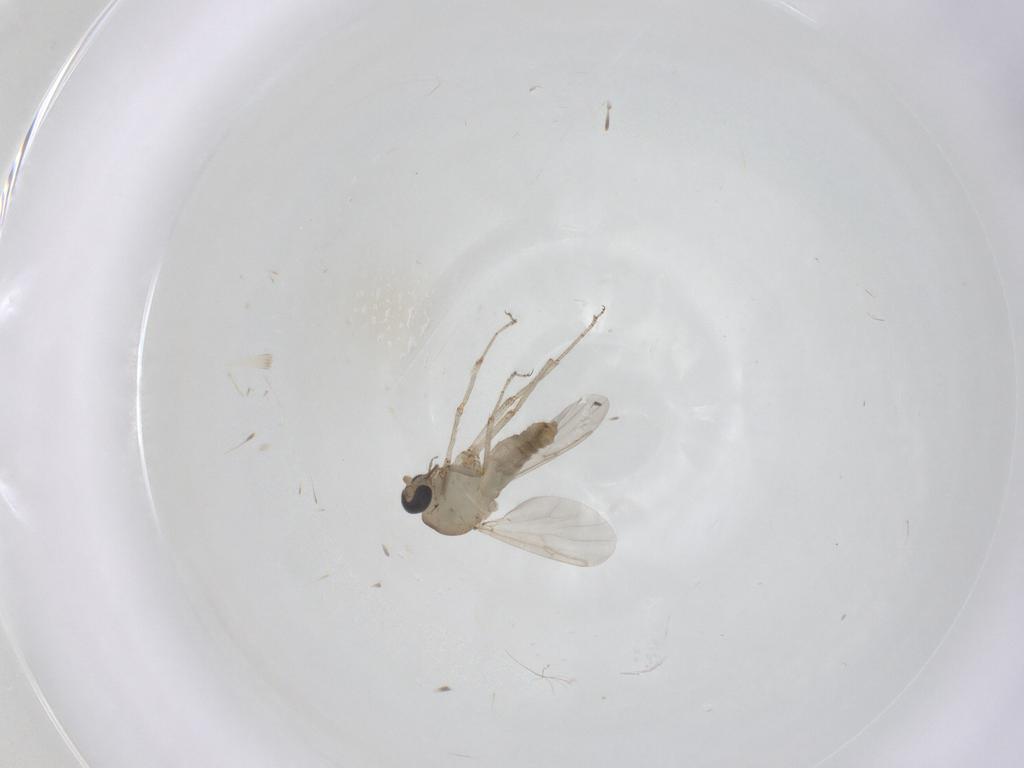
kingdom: Animalia
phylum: Arthropoda
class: Insecta
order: Diptera
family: Ceratopogonidae
